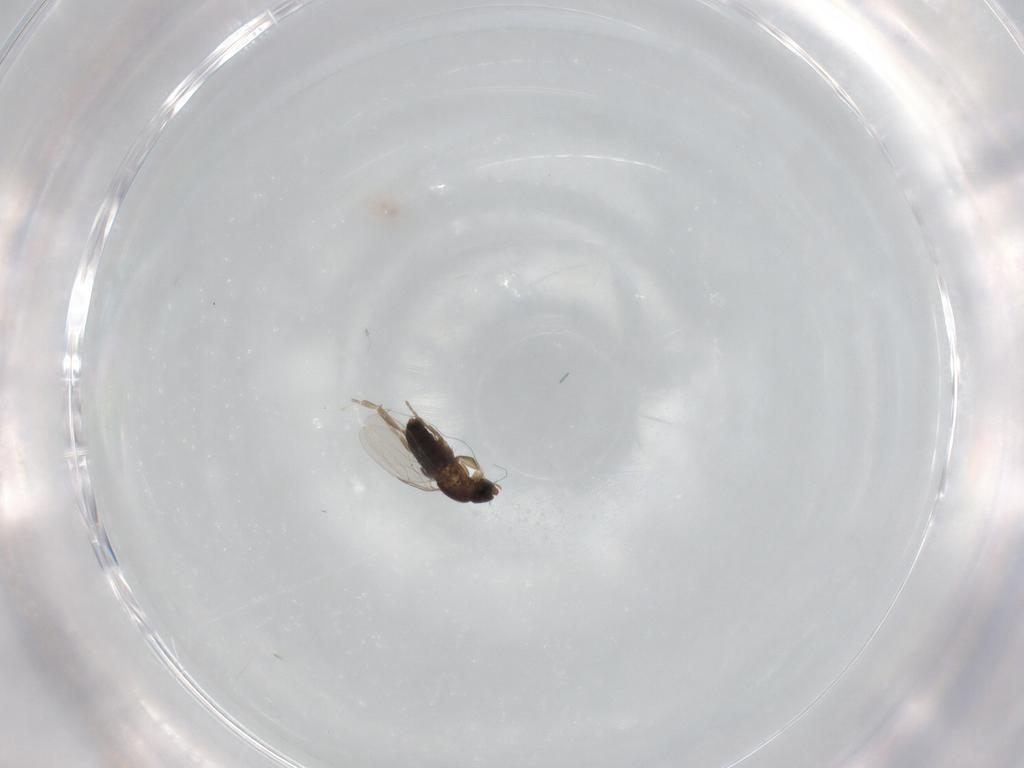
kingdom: Animalia
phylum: Arthropoda
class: Insecta
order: Diptera
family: Phoridae
